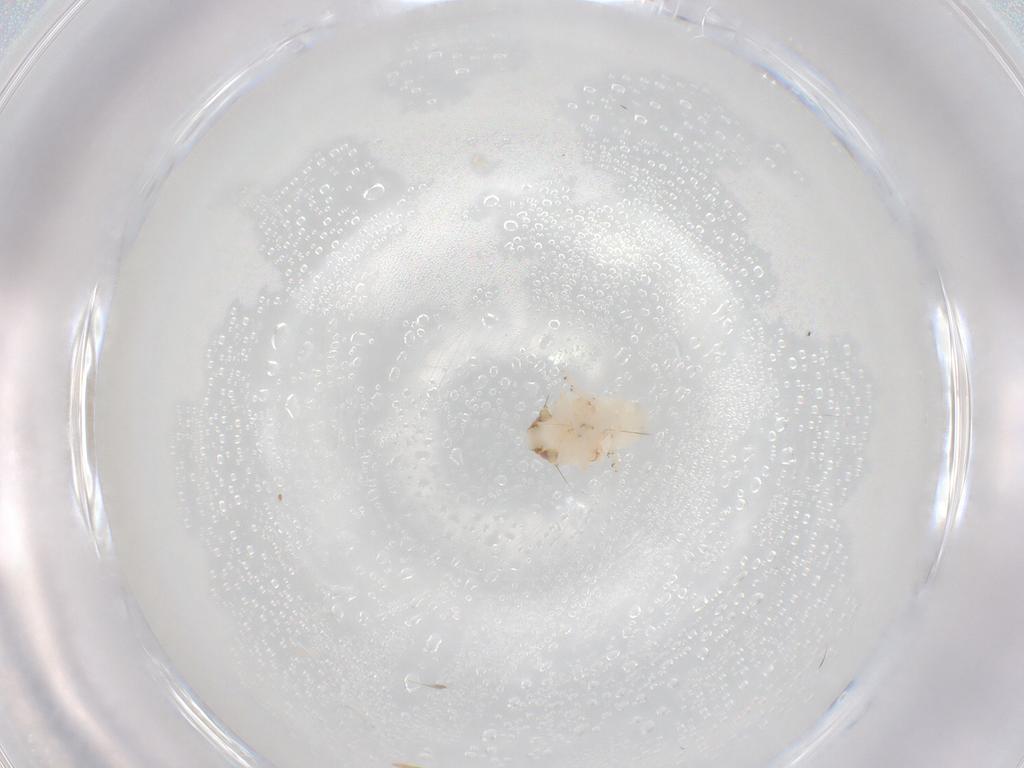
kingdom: Animalia
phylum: Arthropoda
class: Insecta
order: Hemiptera
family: Nogodinidae
